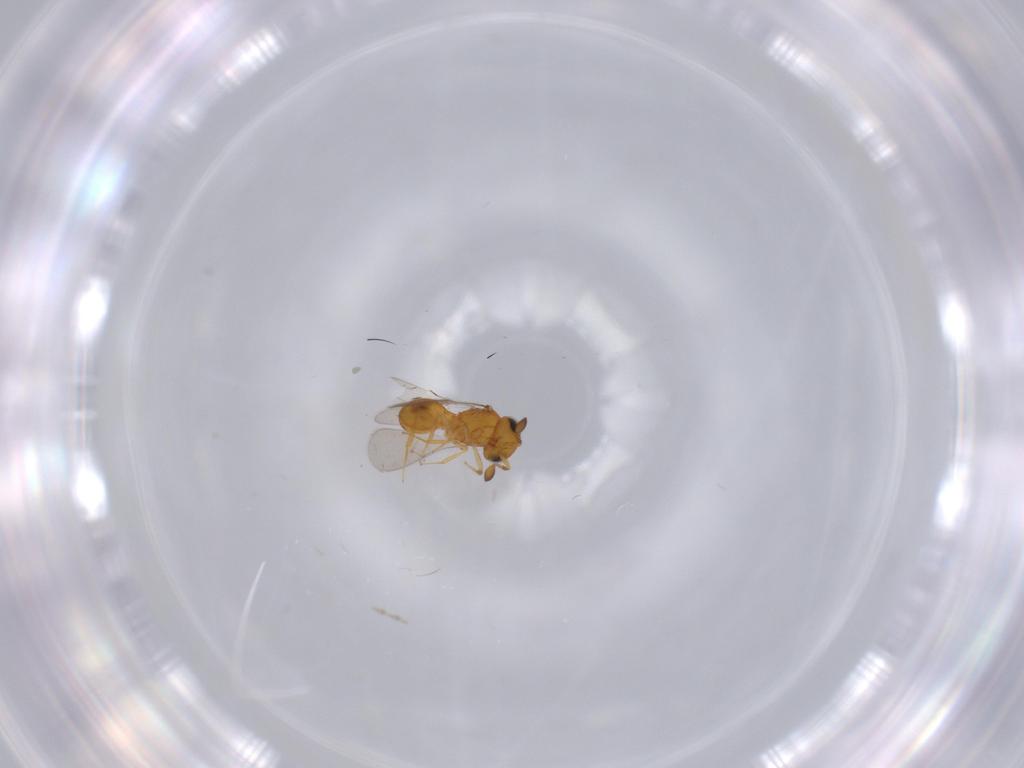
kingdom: Animalia
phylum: Arthropoda
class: Insecta
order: Hymenoptera
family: Scelionidae
